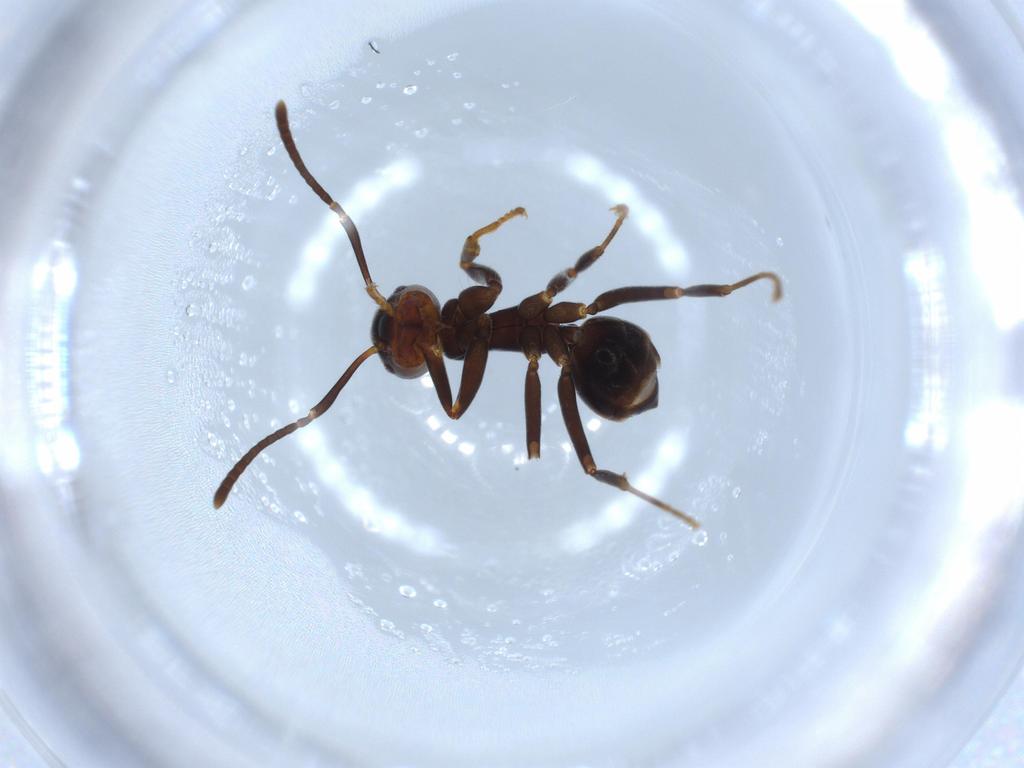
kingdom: Animalia
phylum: Arthropoda
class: Insecta
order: Hymenoptera
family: Formicidae
